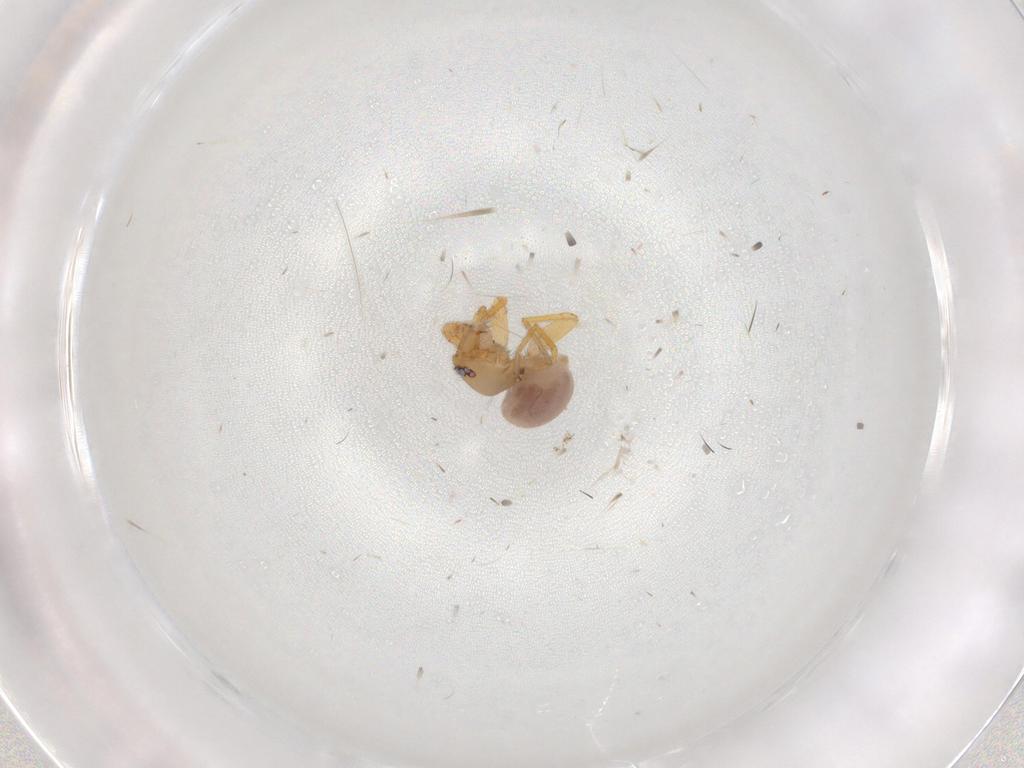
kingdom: Animalia
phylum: Arthropoda
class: Arachnida
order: Araneae
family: Oonopidae
